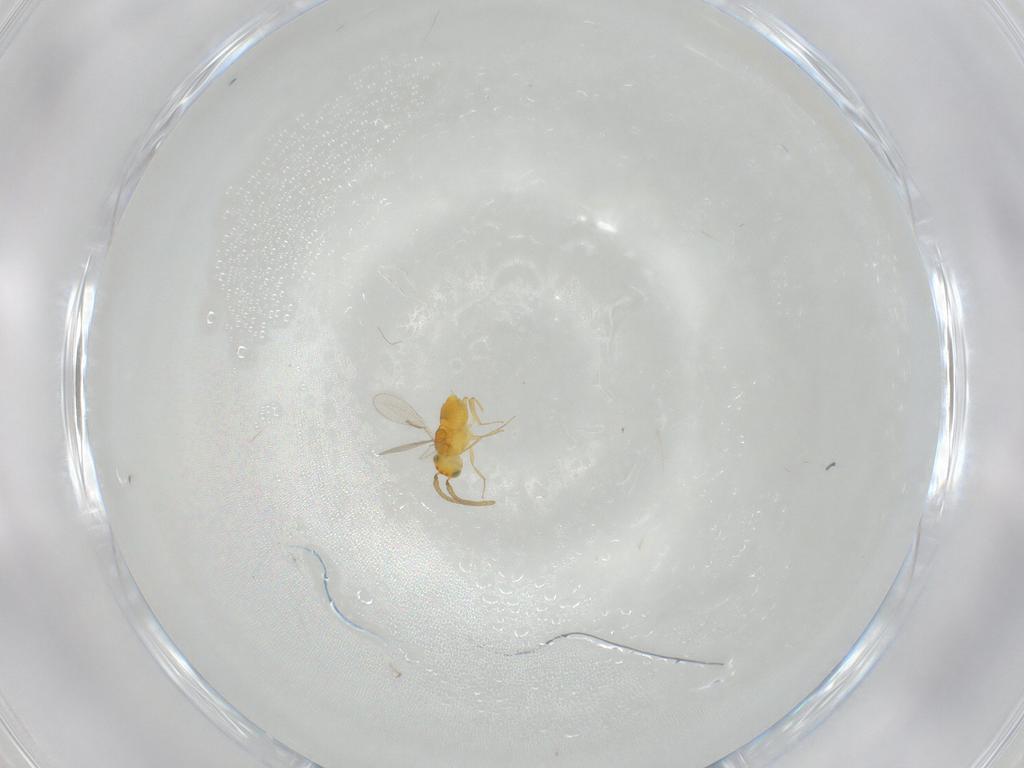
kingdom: Animalia
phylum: Arthropoda
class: Insecta
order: Hymenoptera
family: Aphelinidae
